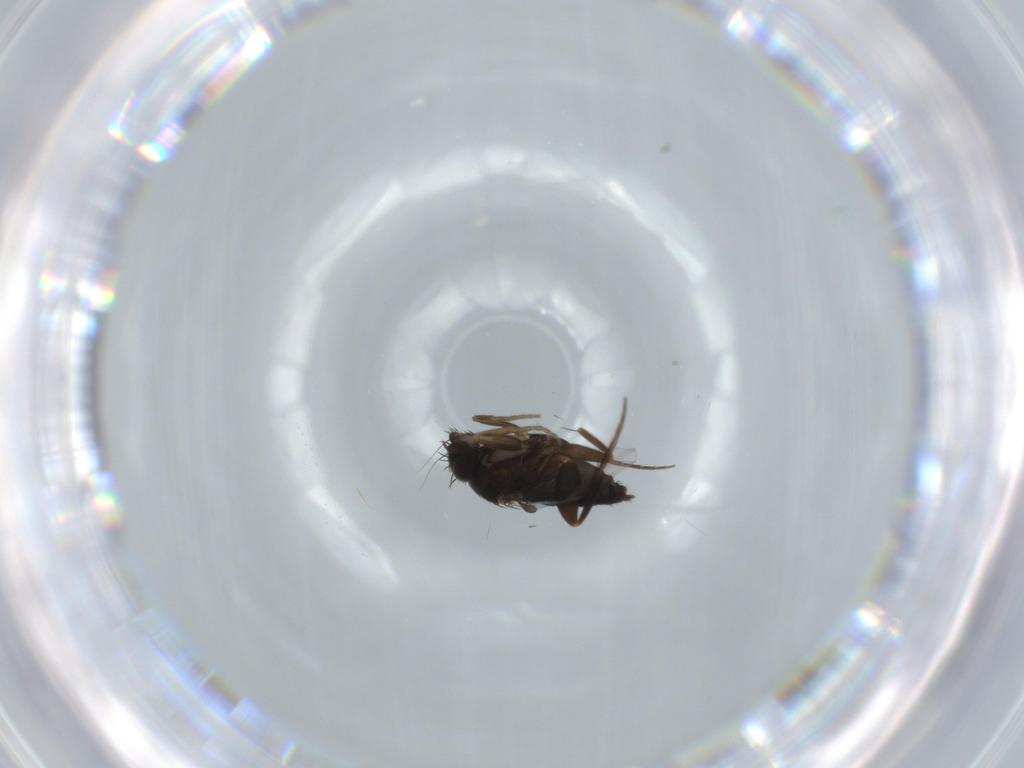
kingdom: Animalia
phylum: Arthropoda
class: Insecta
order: Diptera
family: Phoridae
